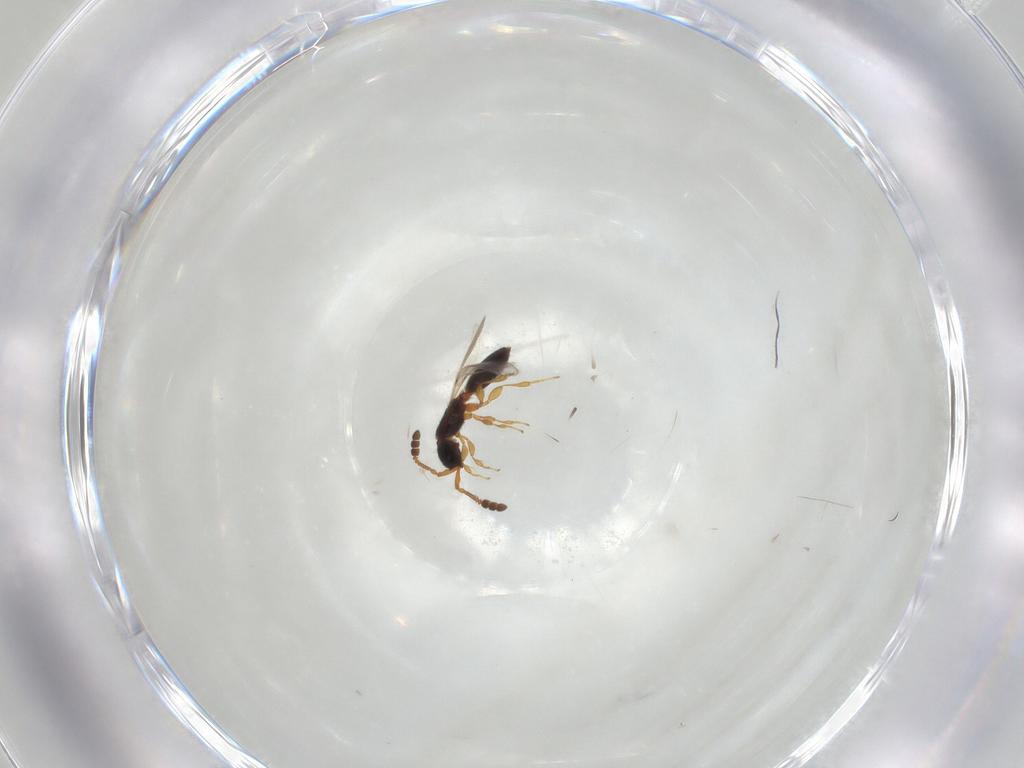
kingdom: Animalia
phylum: Arthropoda
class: Insecta
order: Hymenoptera
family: Diapriidae
